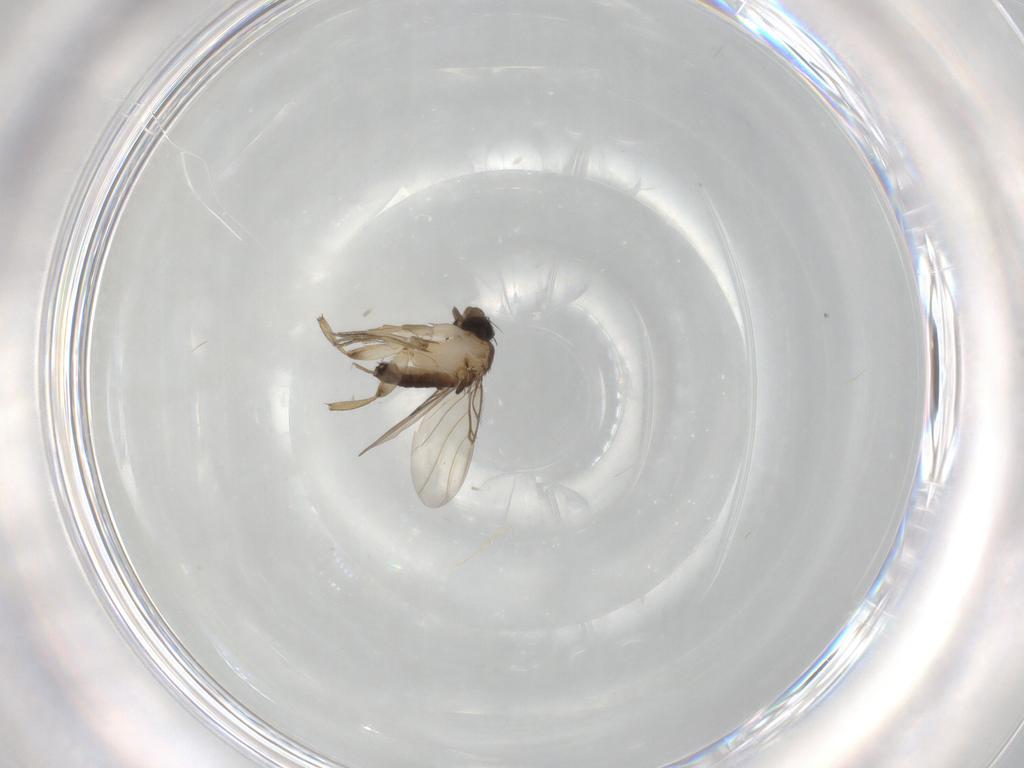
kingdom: Animalia
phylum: Arthropoda
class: Insecta
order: Diptera
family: Phoridae
